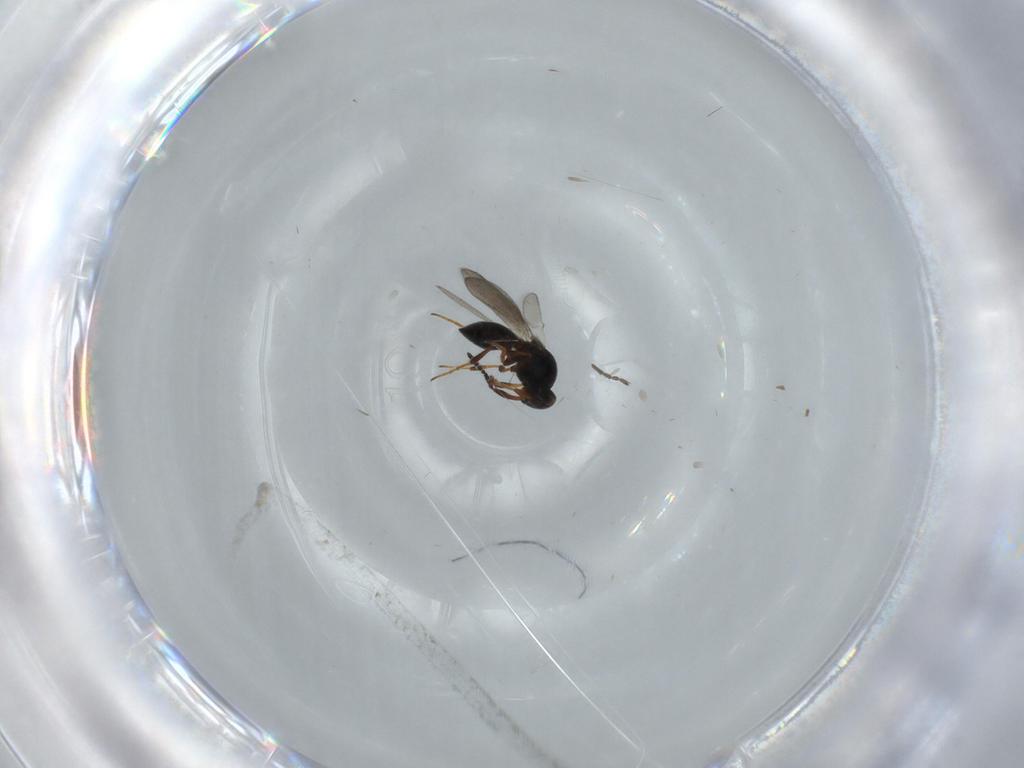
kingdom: Animalia
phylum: Arthropoda
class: Insecta
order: Hymenoptera
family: Platygastridae
